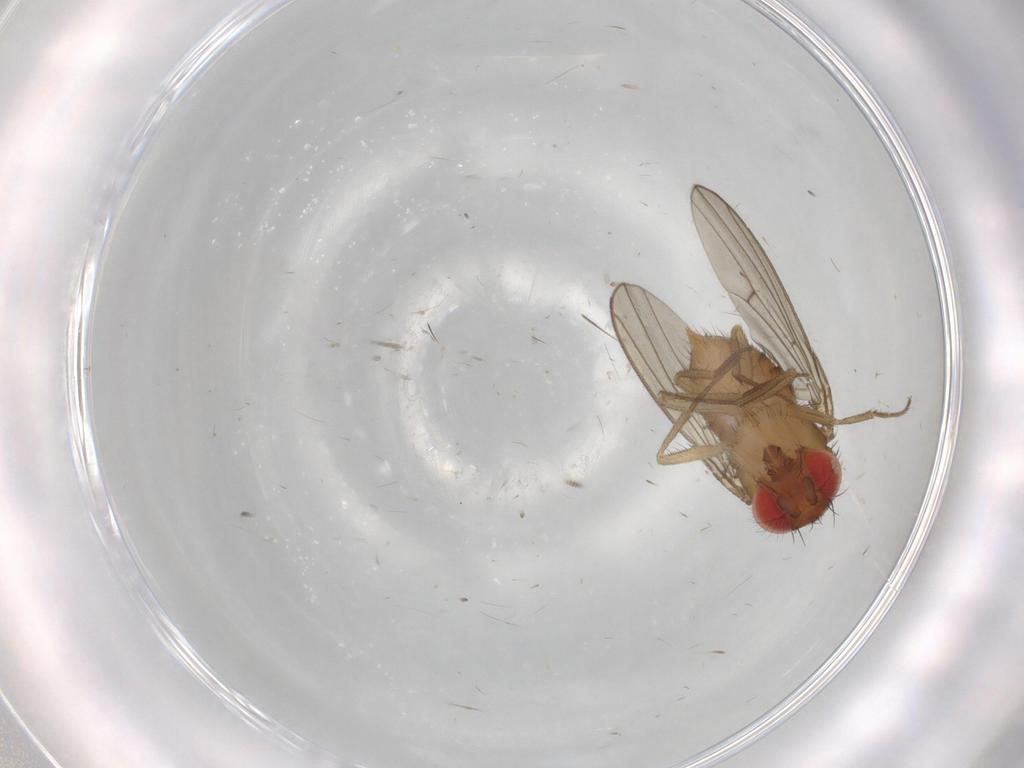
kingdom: Animalia
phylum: Arthropoda
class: Insecta
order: Diptera
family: Drosophilidae
